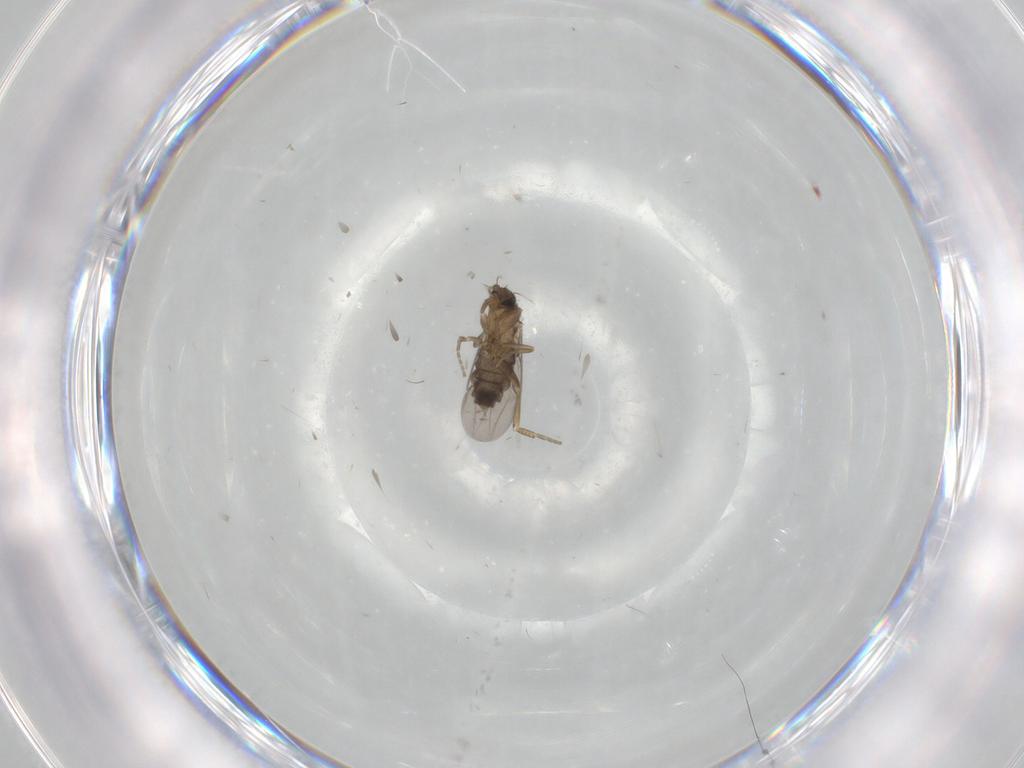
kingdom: Animalia
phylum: Arthropoda
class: Insecta
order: Diptera
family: Phoridae
